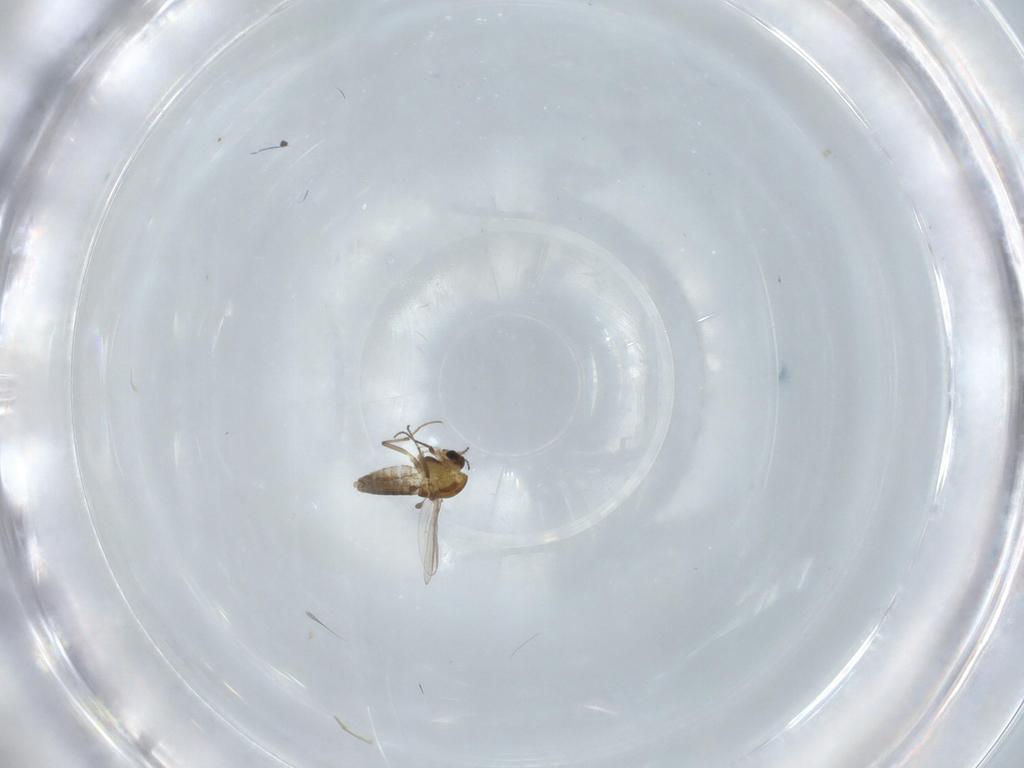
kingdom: Animalia
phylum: Arthropoda
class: Insecta
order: Diptera
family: Chironomidae
